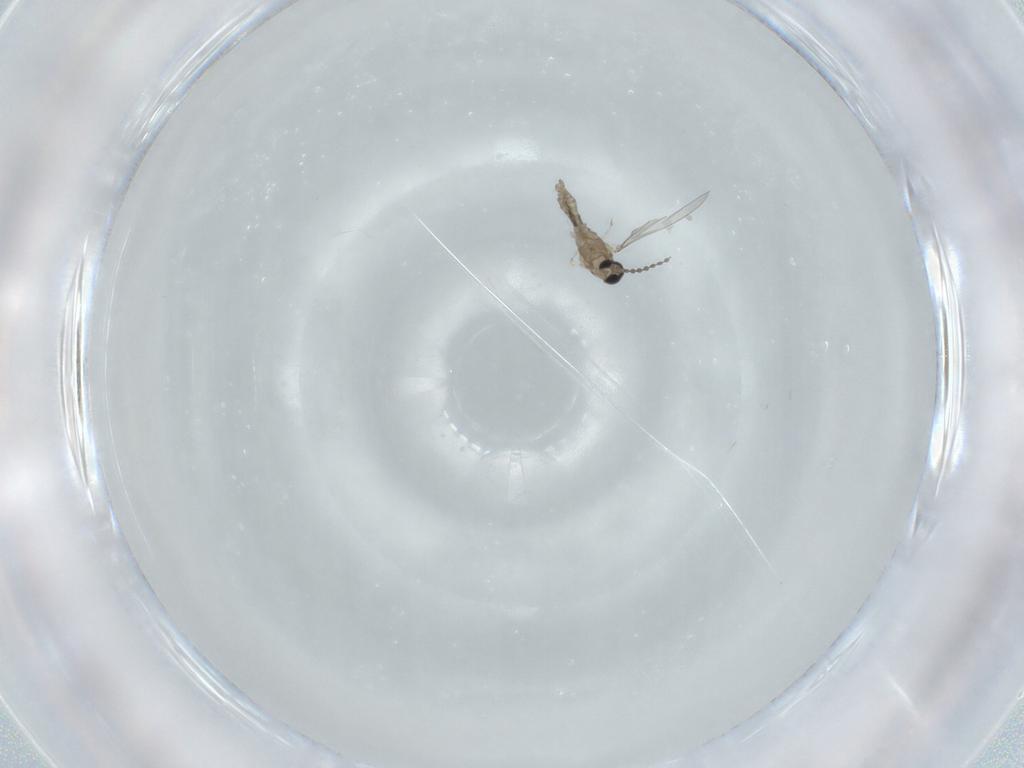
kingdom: Animalia
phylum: Arthropoda
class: Insecta
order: Diptera
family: Cecidomyiidae
